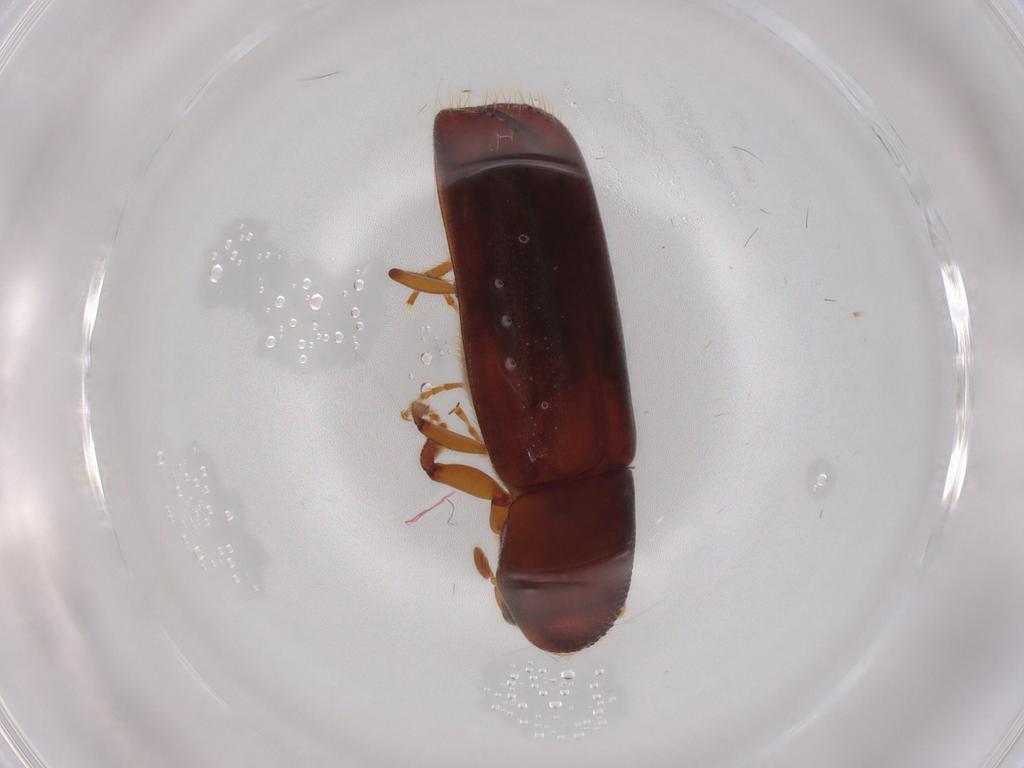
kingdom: Animalia
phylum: Arthropoda
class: Insecta
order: Coleoptera
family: Curculionidae
